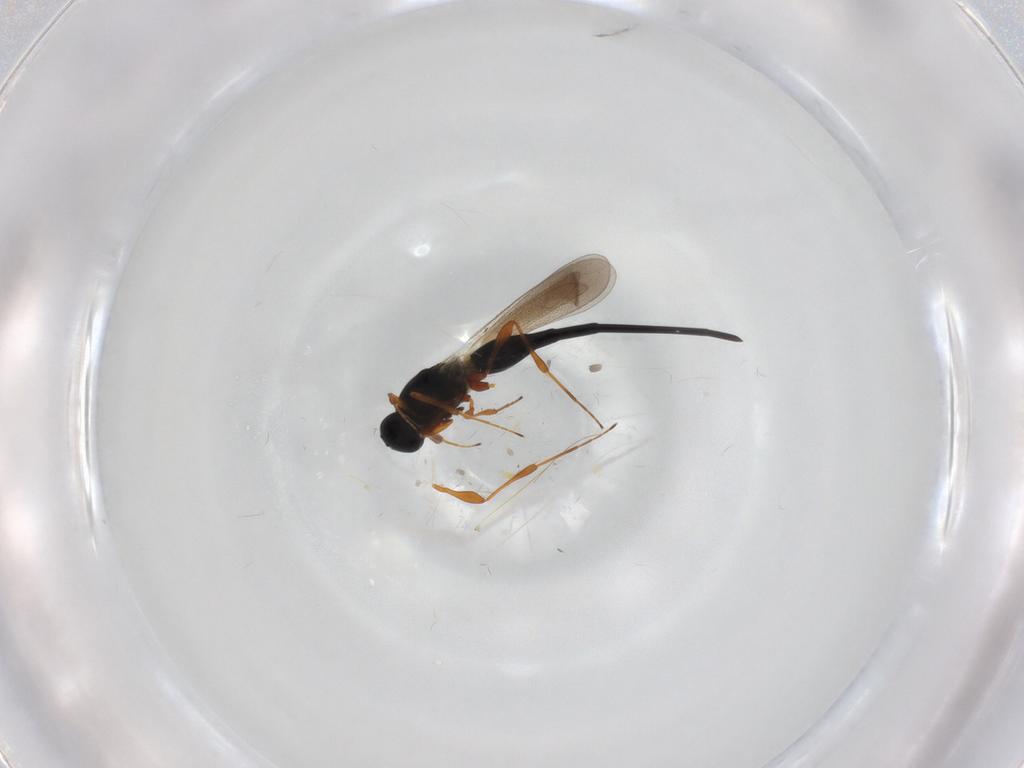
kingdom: Animalia
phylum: Arthropoda
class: Insecta
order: Hymenoptera
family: Platygastridae
